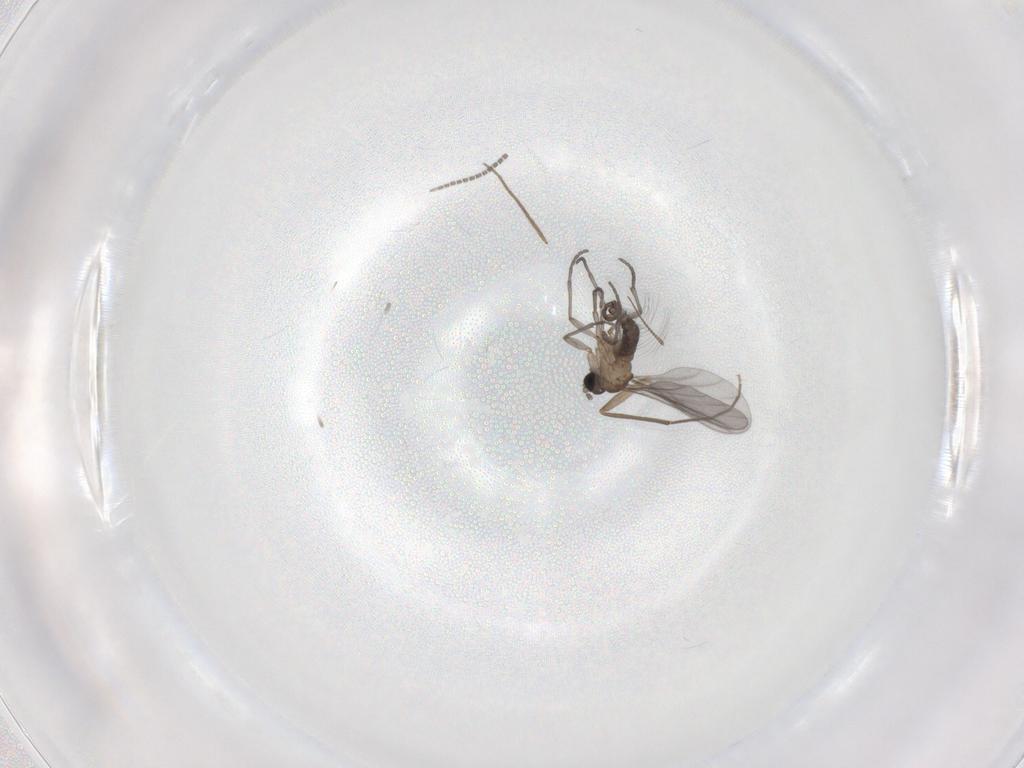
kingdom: Animalia
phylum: Arthropoda
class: Insecta
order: Diptera
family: Sciaridae
